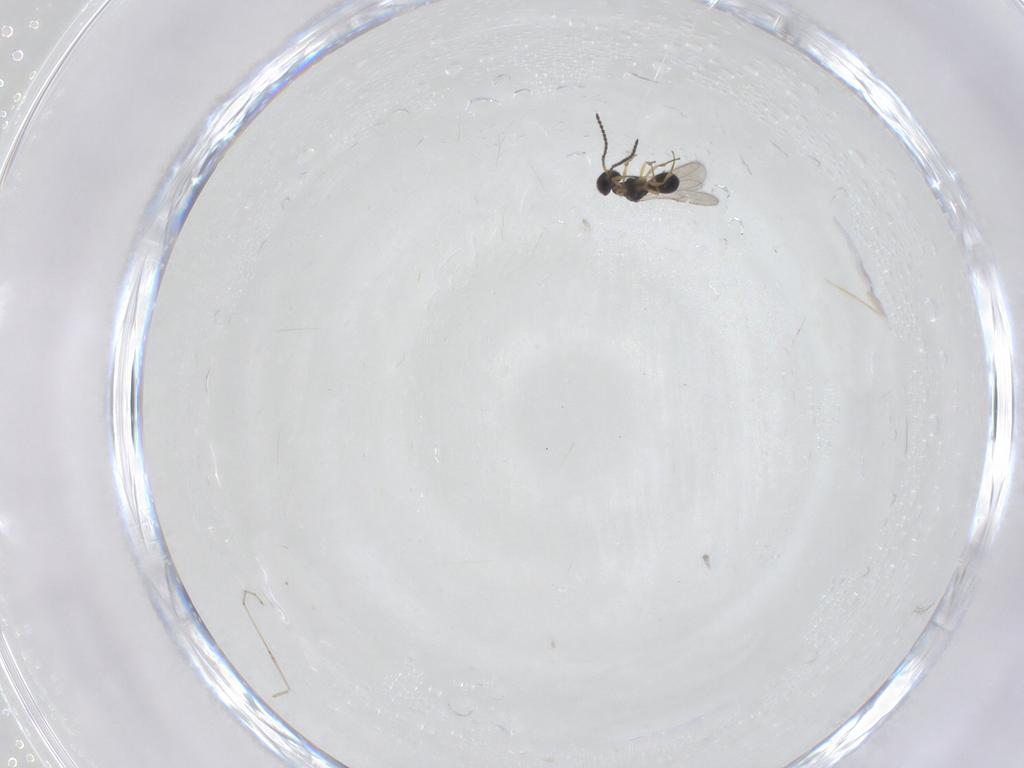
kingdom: Animalia
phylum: Arthropoda
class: Insecta
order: Hymenoptera
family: Scelionidae
